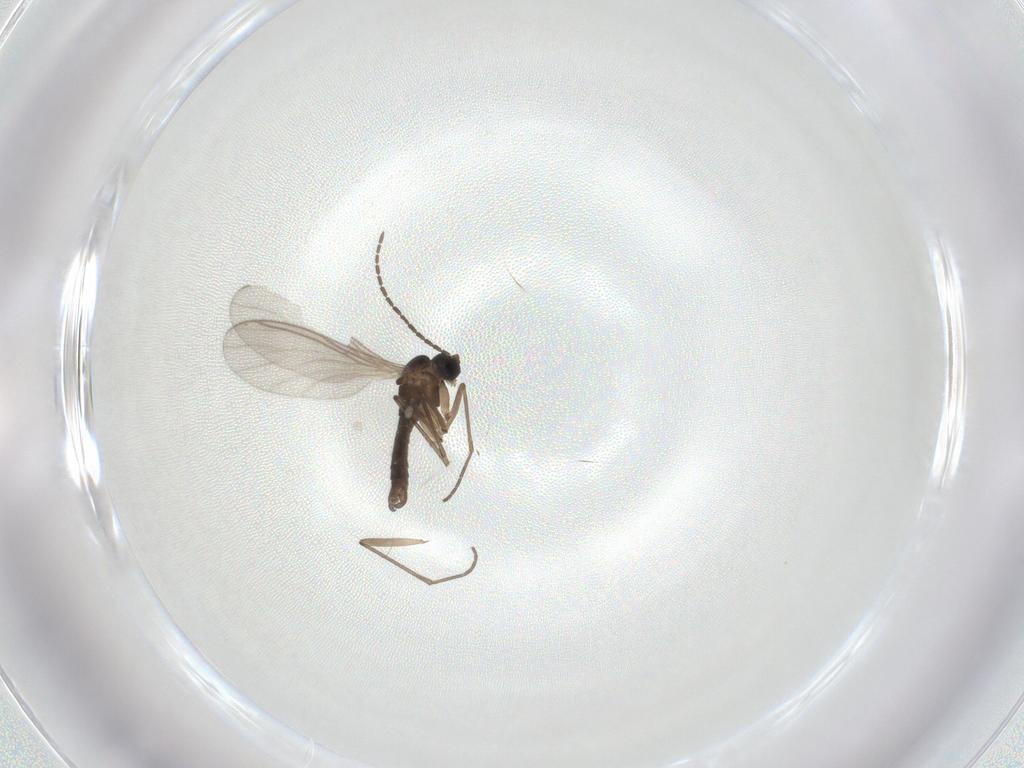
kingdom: Animalia
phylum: Arthropoda
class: Insecta
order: Diptera
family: Sciaridae
